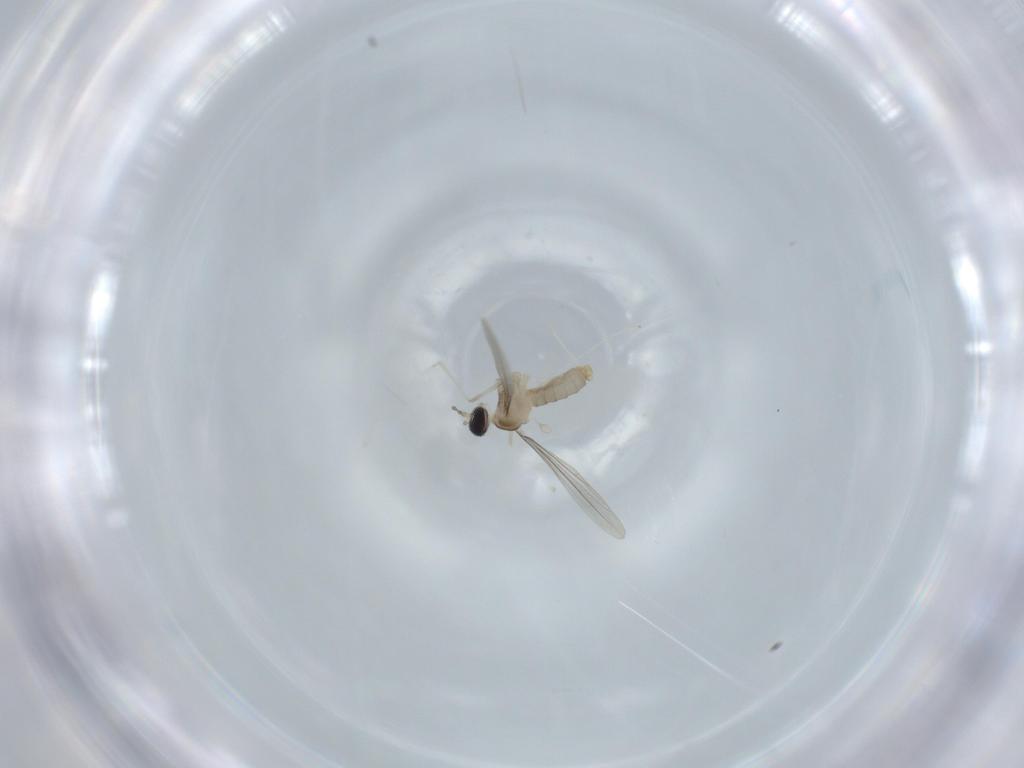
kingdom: Animalia
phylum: Arthropoda
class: Insecta
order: Diptera
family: Cecidomyiidae
